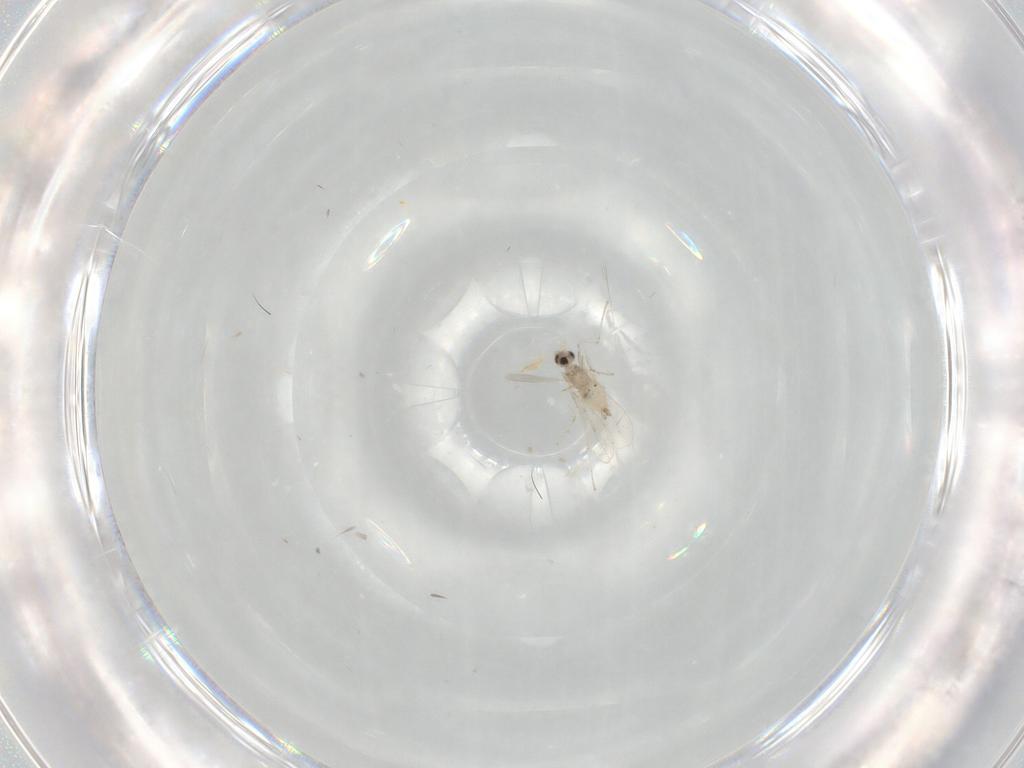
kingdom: Animalia
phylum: Arthropoda
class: Insecta
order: Diptera
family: Cecidomyiidae
